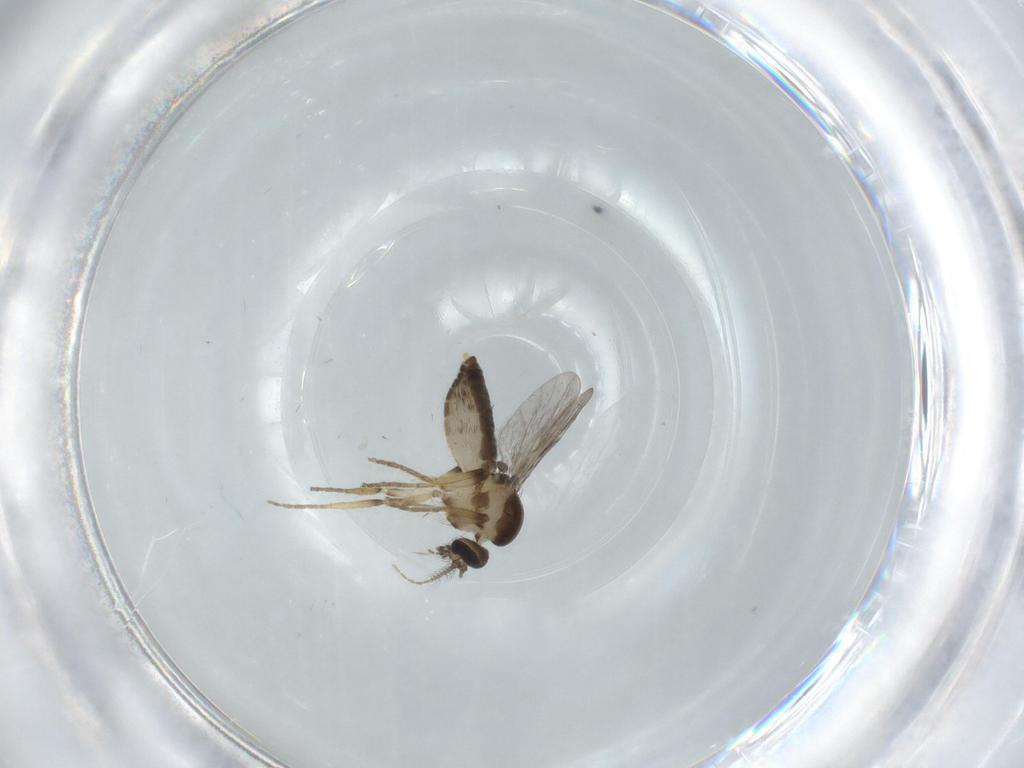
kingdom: Animalia
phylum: Arthropoda
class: Insecta
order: Diptera
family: Ceratopogonidae
